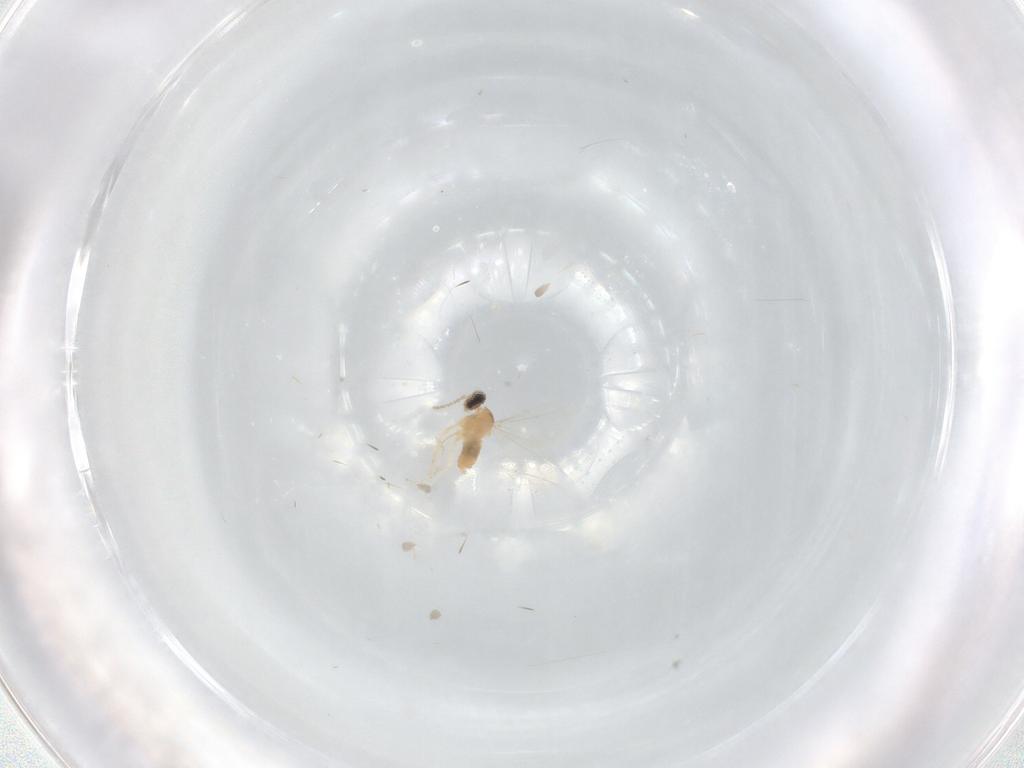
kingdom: Animalia
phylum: Arthropoda
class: Insecta
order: Diptera
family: Cecidomyiidae
